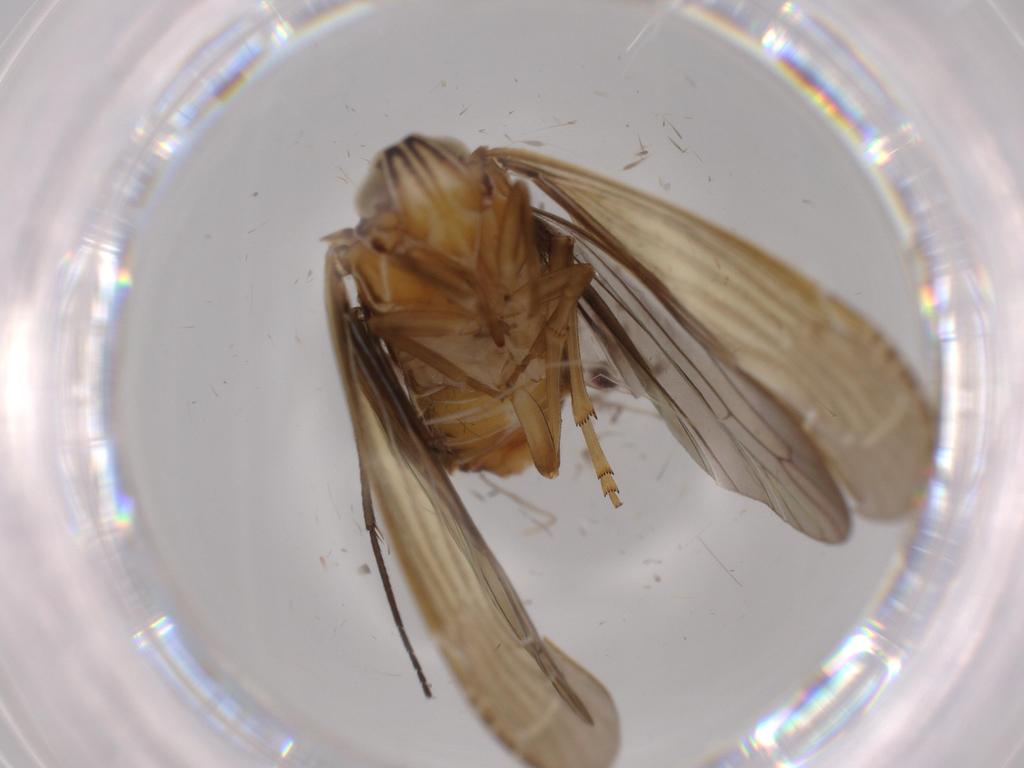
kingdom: Animalia
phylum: Arthropoda
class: Insecta
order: Hemiptera
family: Achilidae
